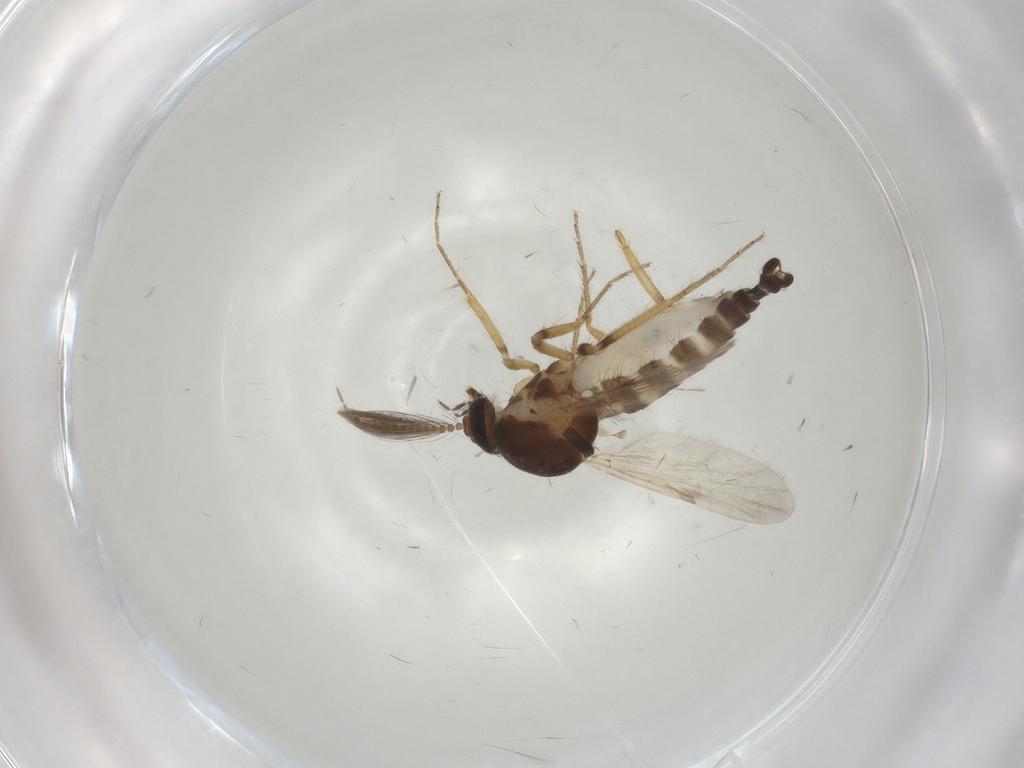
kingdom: Animalia
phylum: Arthropoda
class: Insecta
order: Diptera
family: Ceratopogonidae
